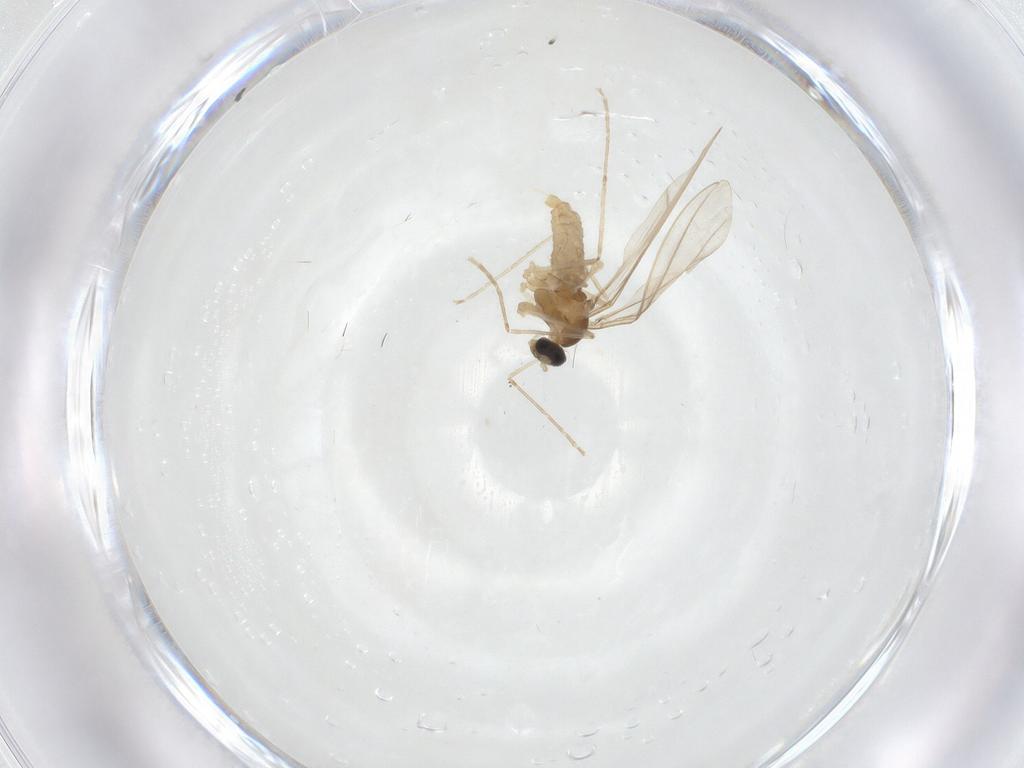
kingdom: Animalia
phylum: Arthropoda
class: Insecta
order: Diptera
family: Cecidomyiidae
